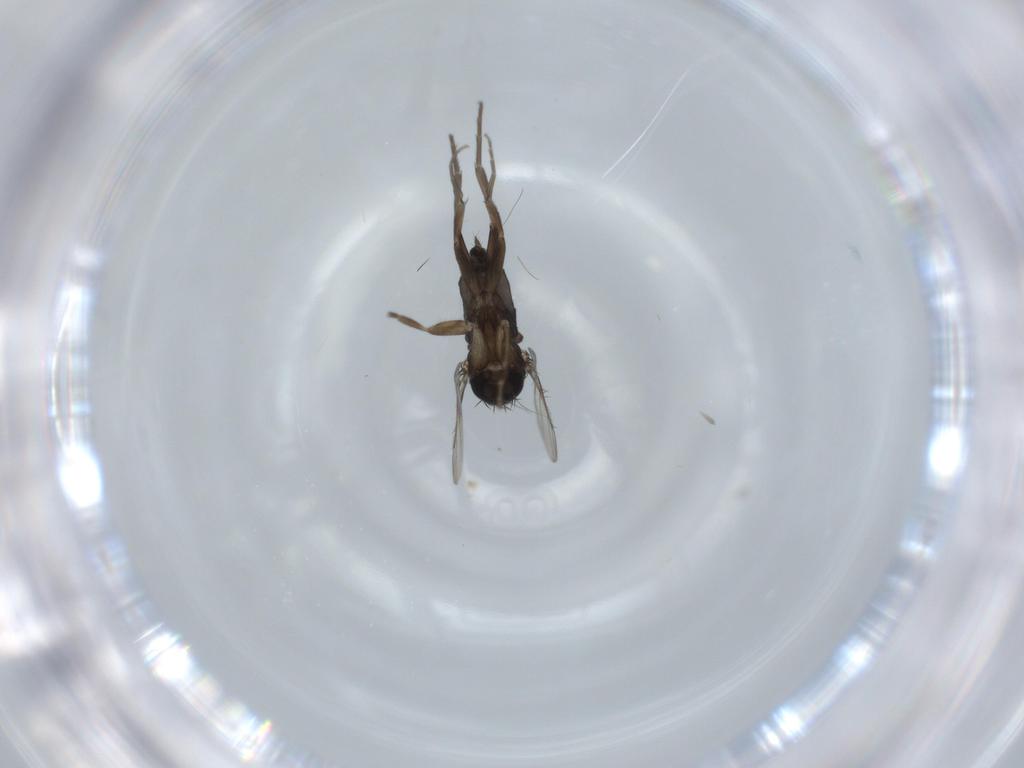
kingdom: Animalia
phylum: Arthropoda
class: Insecta
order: Diptera
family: Phoridae
